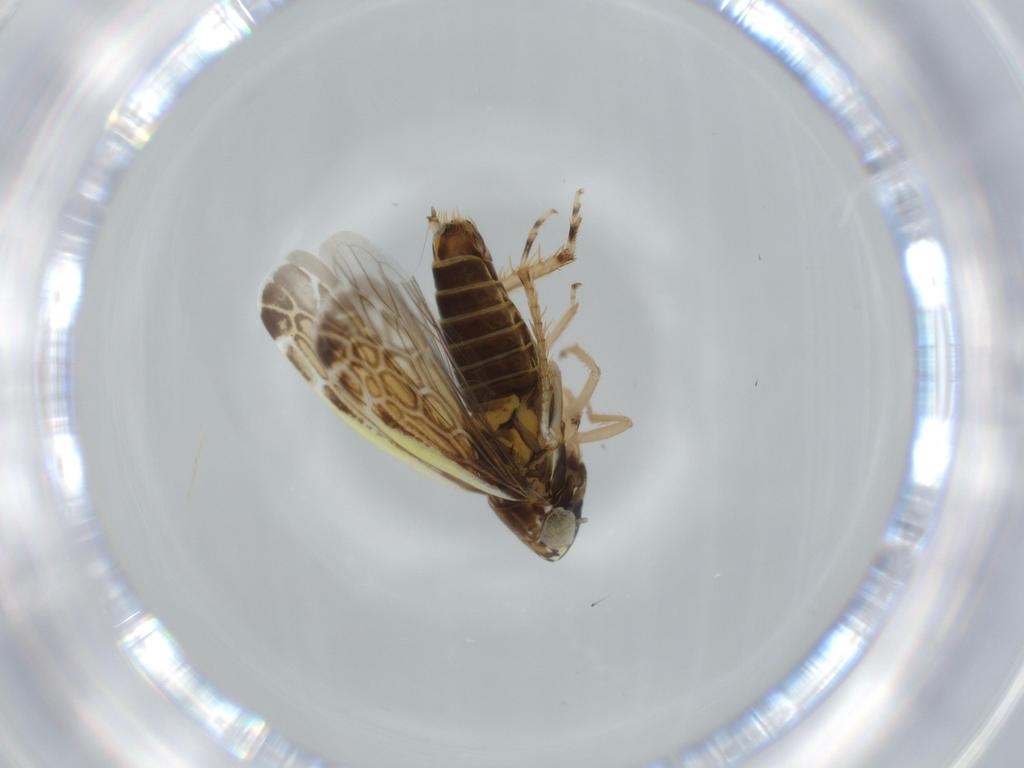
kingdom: Animalia
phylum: Arthropoda
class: Insecta
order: Hemiptera
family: Cicadellidae
